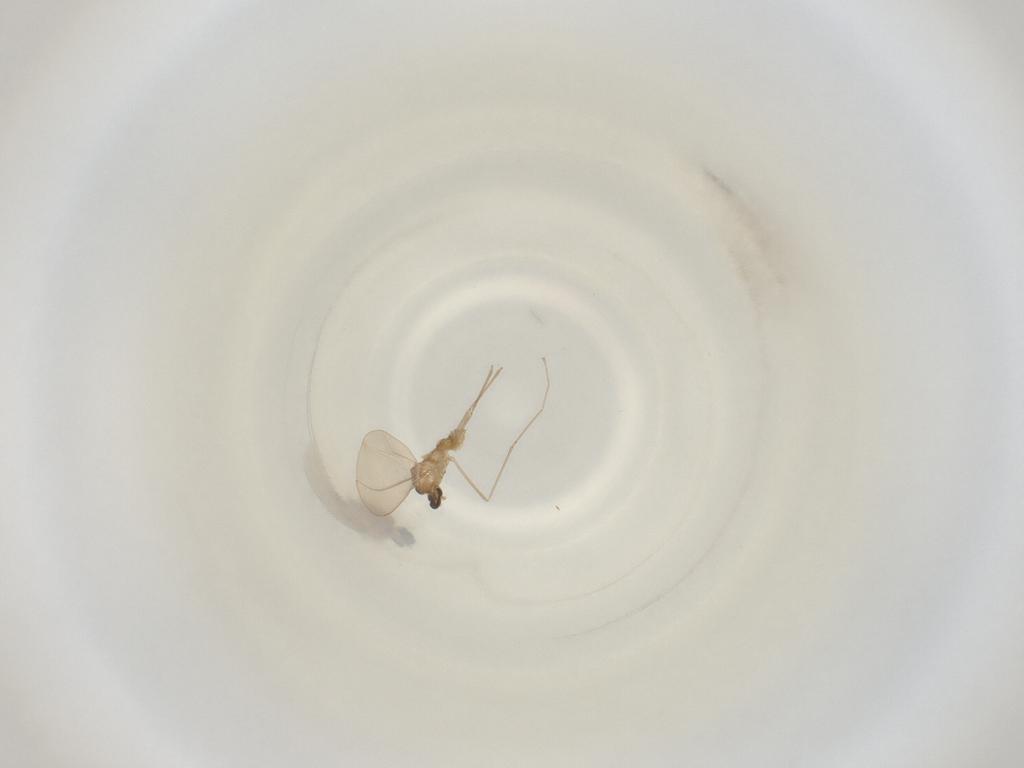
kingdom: Animalia
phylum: Arthropoda
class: Insecta
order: Diptera
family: Cecidomyiidae
